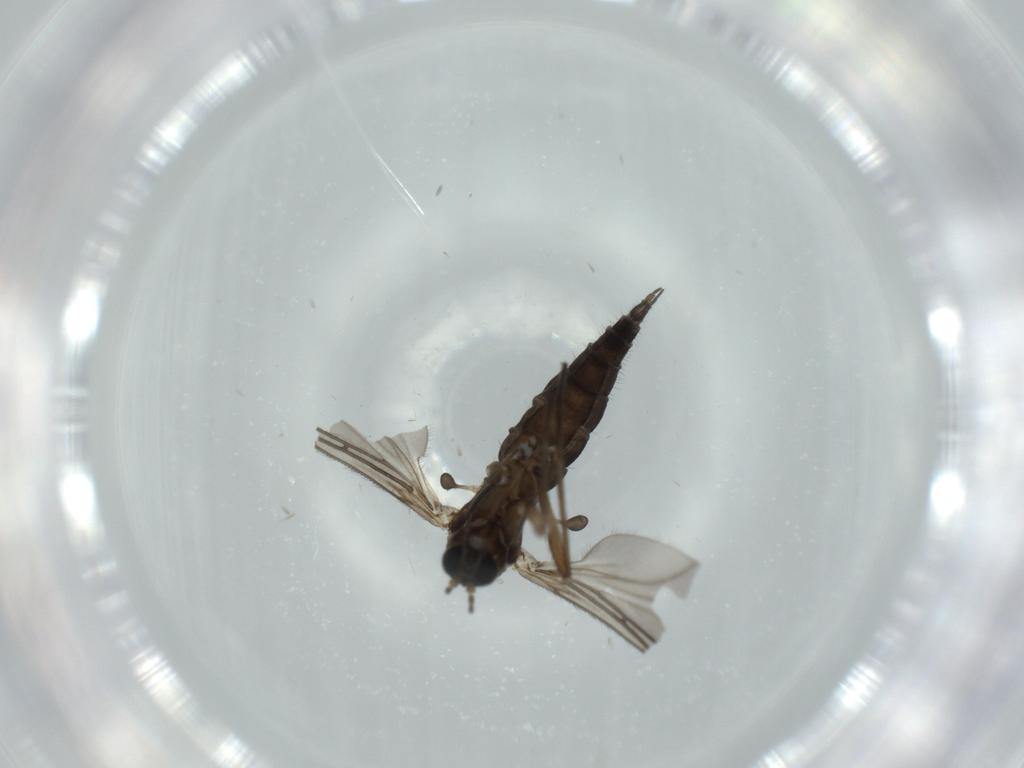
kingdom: Animalia
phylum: Arthropoda
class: Insecta
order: Diptera
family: Sciaridae
